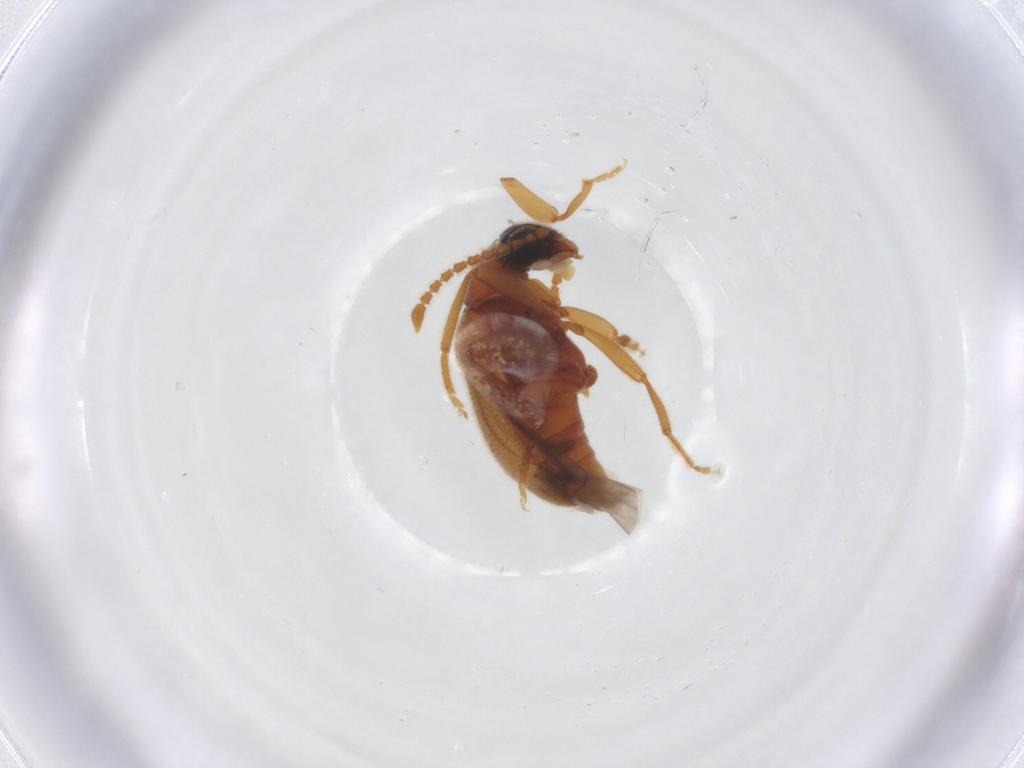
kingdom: Animalia
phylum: Arthropoda
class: Insecta
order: Coleoptera
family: Aderidae
